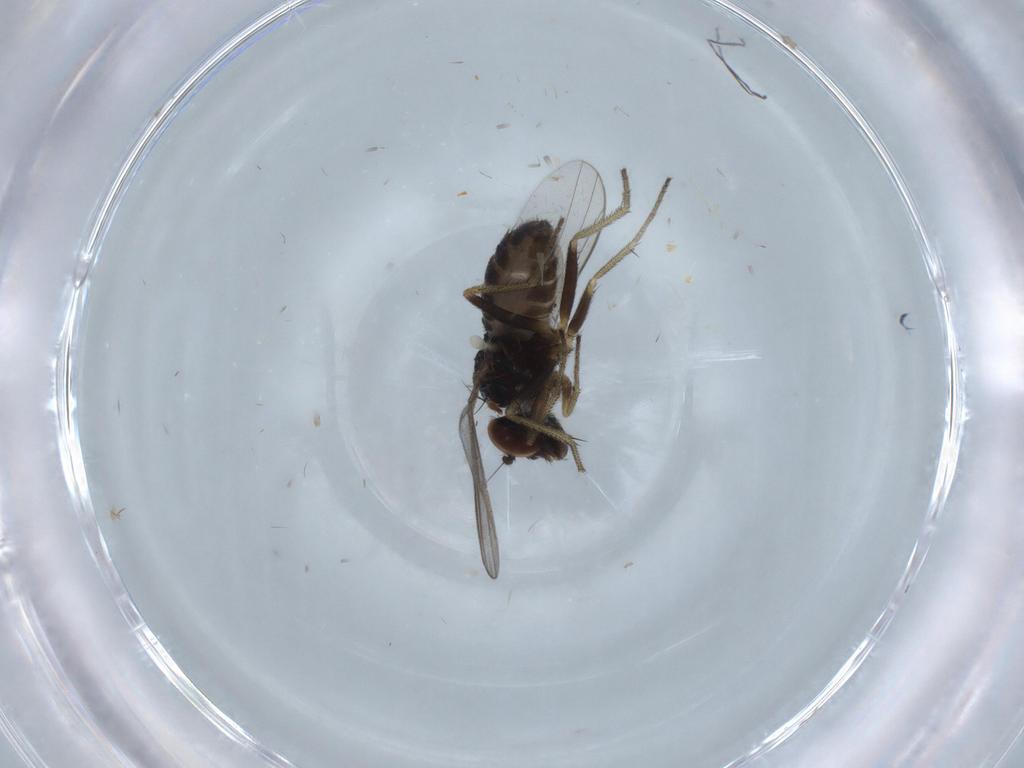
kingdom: Animalia
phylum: Arthropoda
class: Insecta
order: Diptera
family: Dolichopodidae
